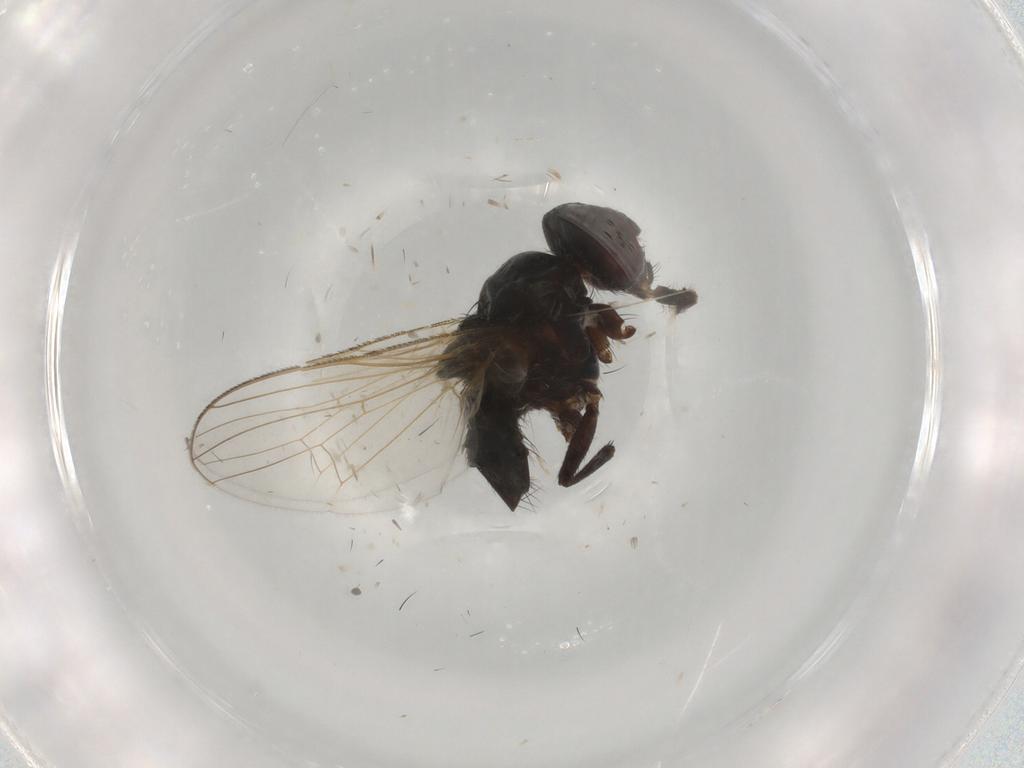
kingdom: Animalia
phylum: Arthropoda
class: Insecta
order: Diptera
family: Muscidae
